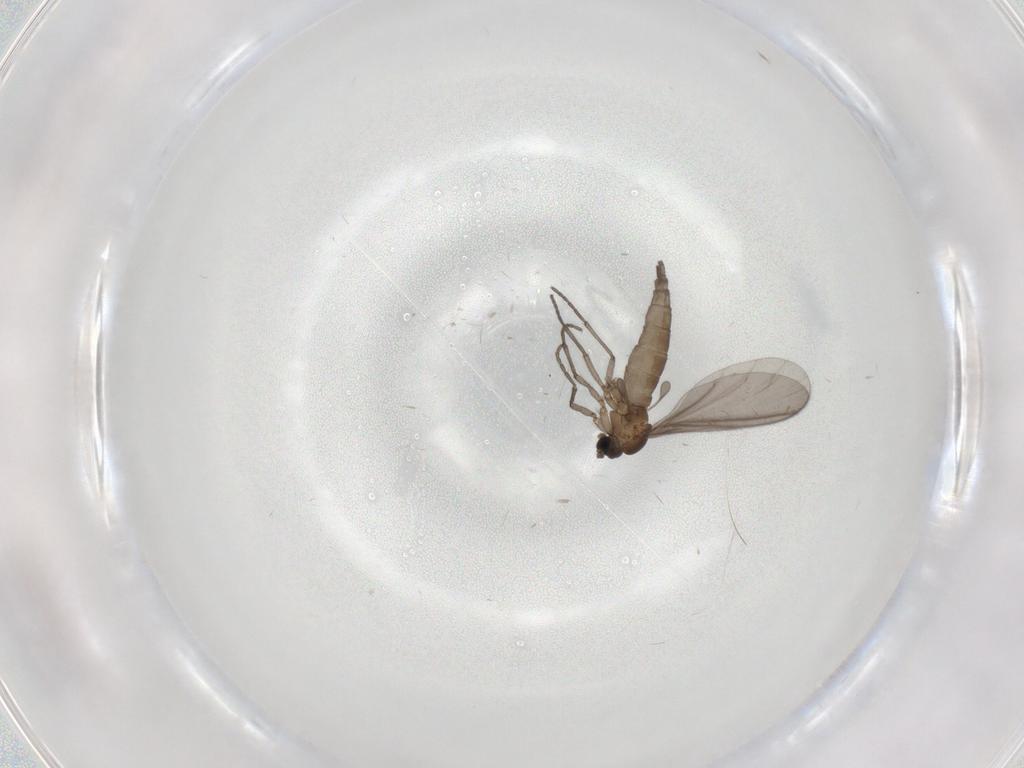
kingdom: Animalia
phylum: Arthropoda
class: Insecta
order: Diptera
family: Sciaridae
